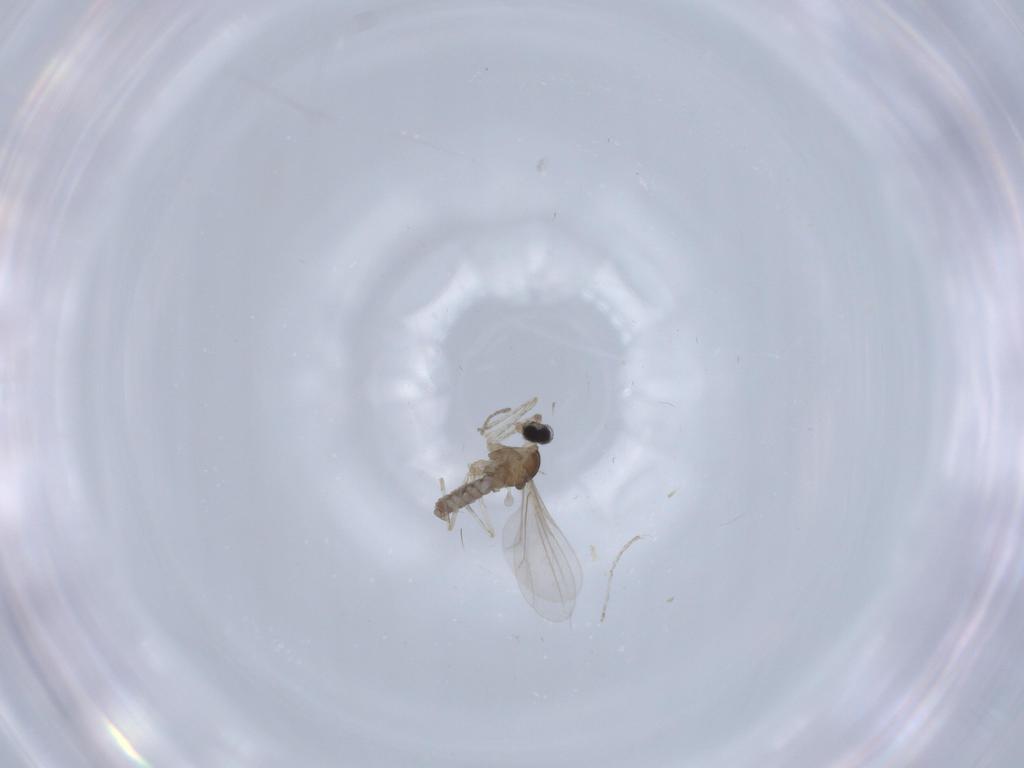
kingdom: Animalia
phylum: Arthropoda
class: Insecta
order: Diptera
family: Cecidomyiidae
